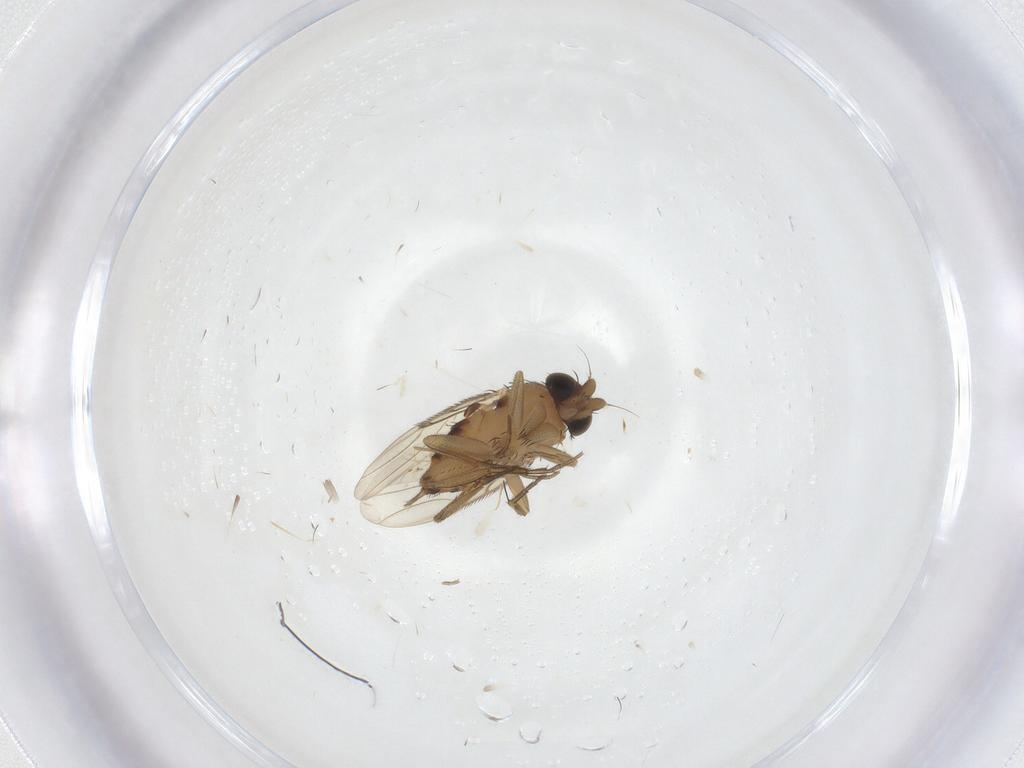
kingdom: Animalia
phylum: Arthropoda
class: Insecta
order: Diptera
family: Phoridae
